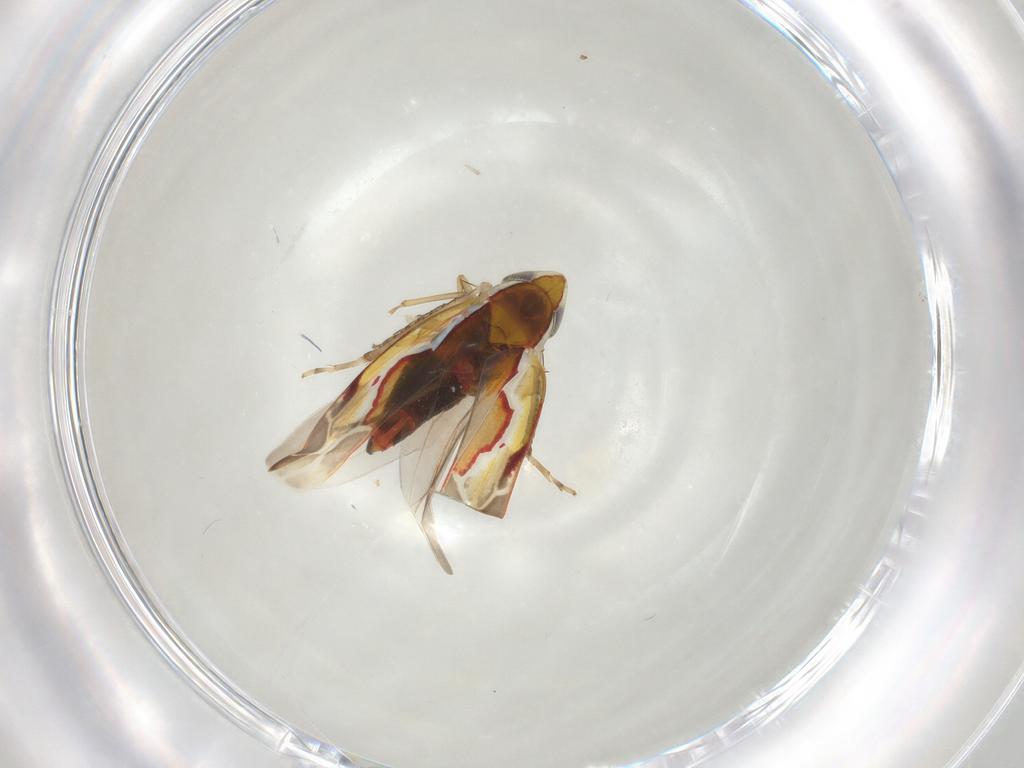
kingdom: Animalia
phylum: Arthropoda
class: Insecta
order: Hemiptera
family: Cicadellidae
